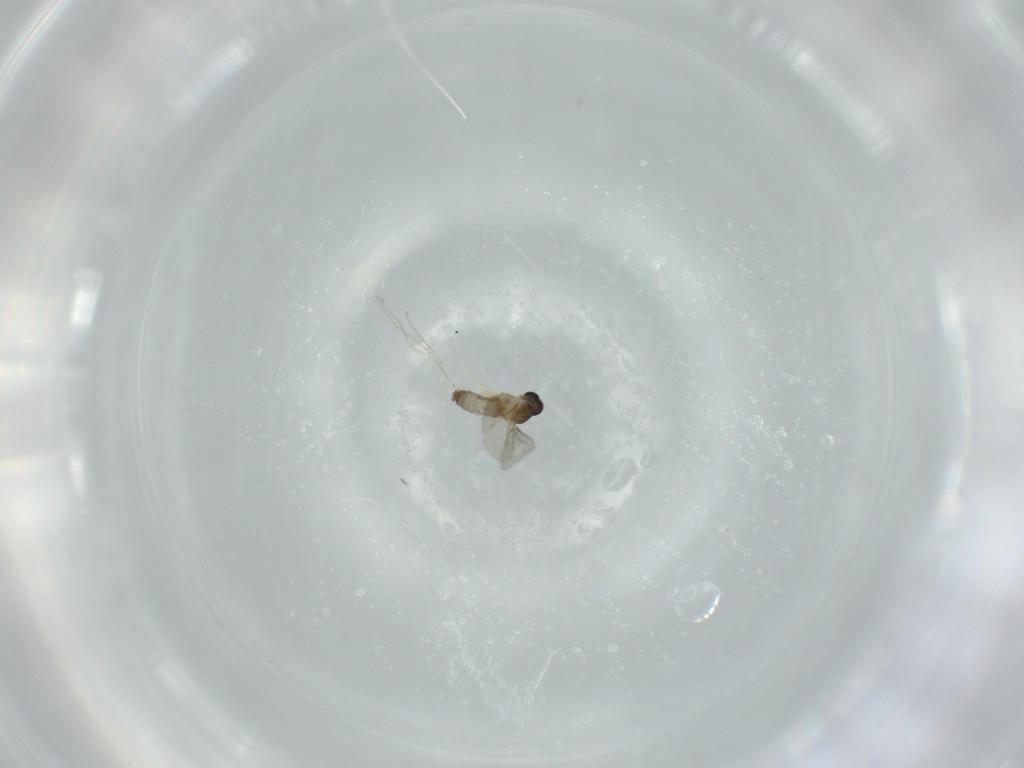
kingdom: Animalia
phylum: Arthropoda
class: Insecta
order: Diptera
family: Cecidomyiidae
